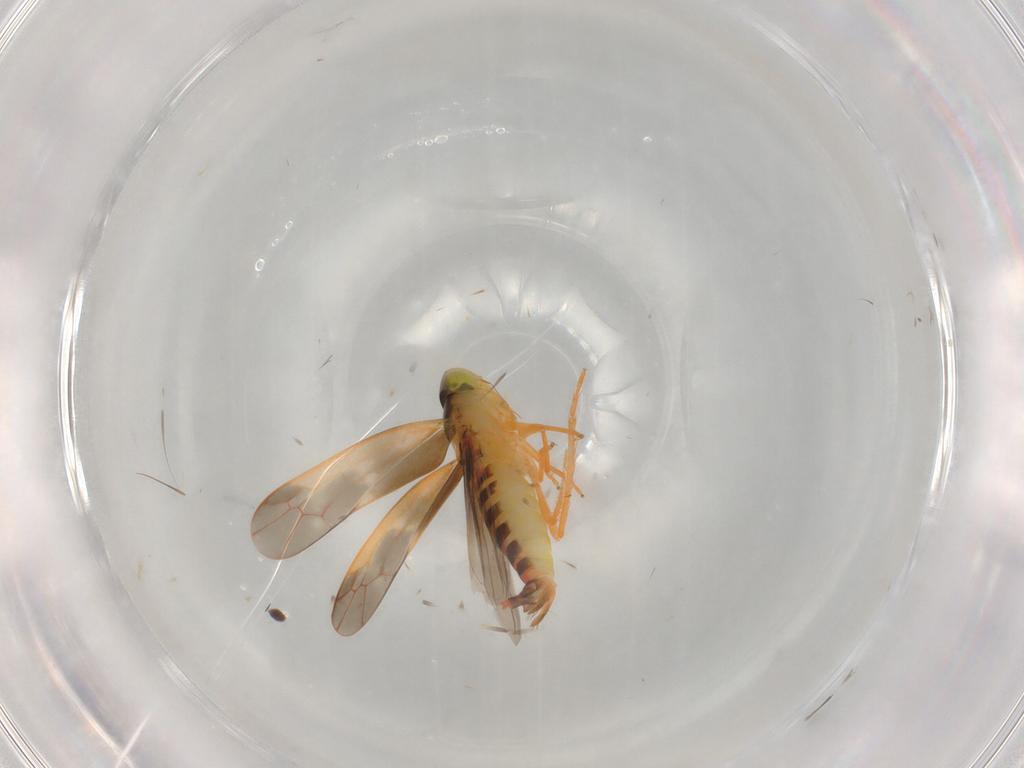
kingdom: Animalia
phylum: Arthropoda
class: Insecta
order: Hemiptera
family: Cicadellidae
